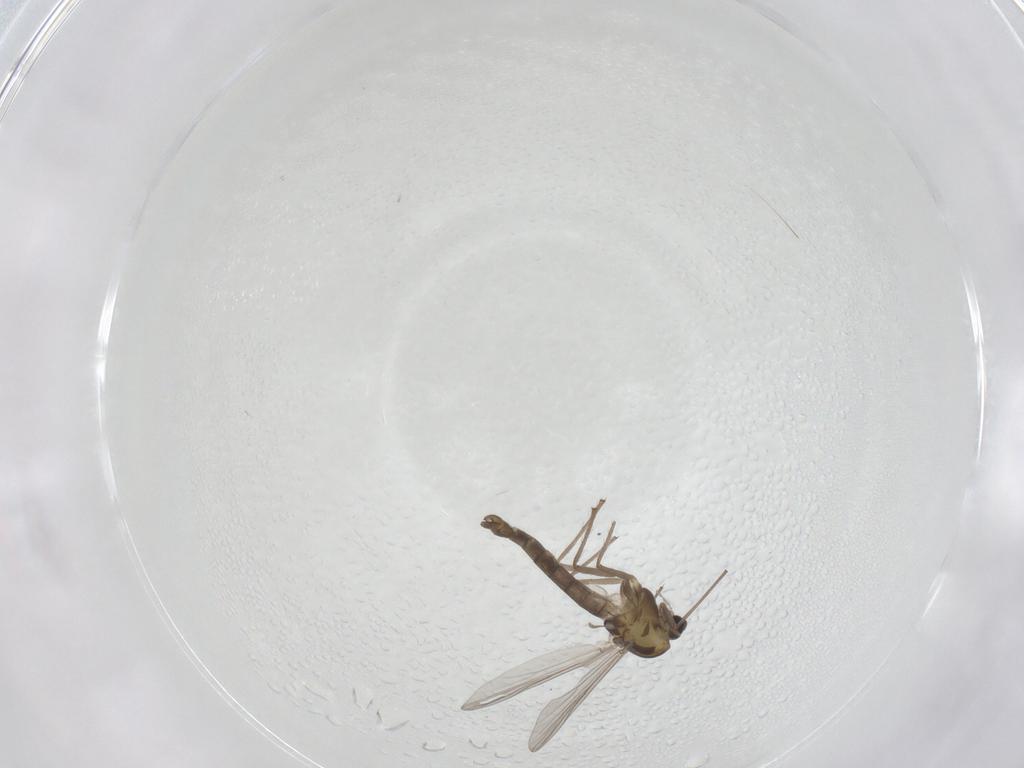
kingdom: Animalia
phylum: Arthropoda
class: Insecta
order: Diptera
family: Chironomidae
